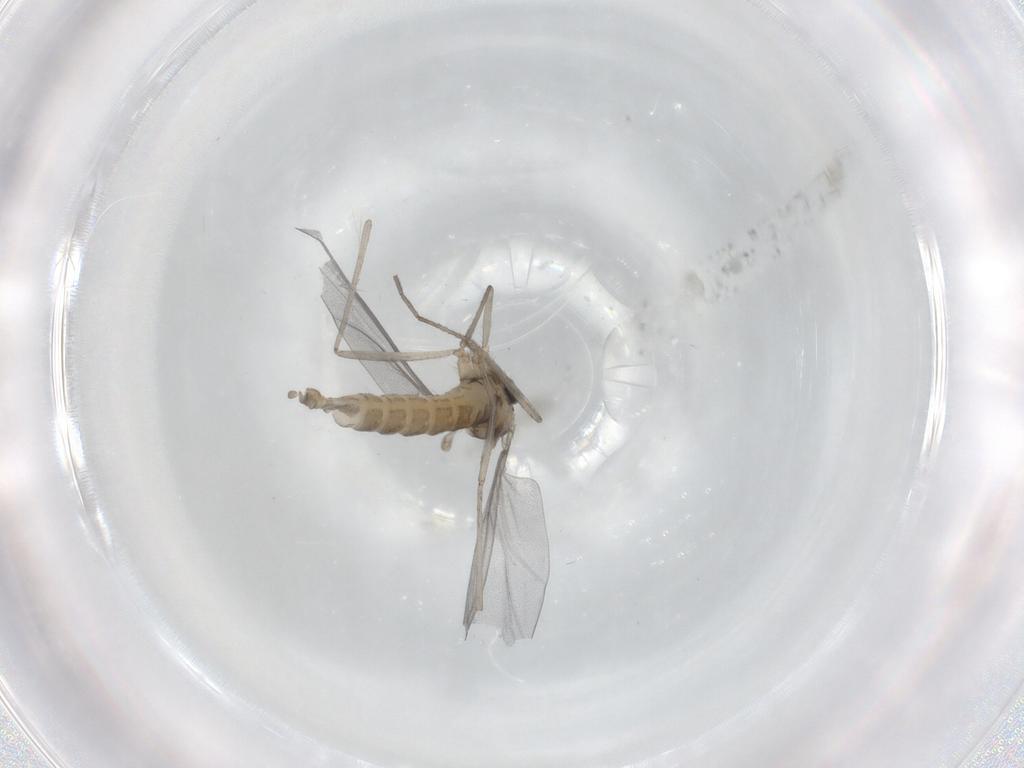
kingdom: Animalia
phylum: Arthropoda
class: Insecta
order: Diptera
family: Cecidomyiidae
